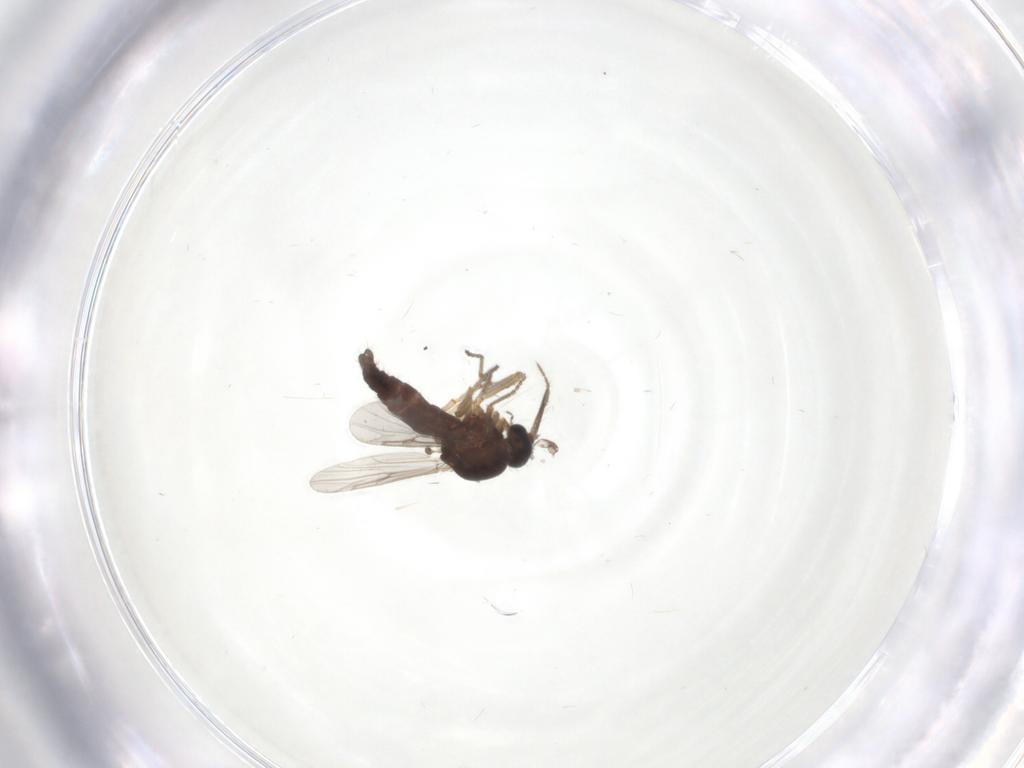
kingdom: Animalia
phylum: Arthropoda
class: Insecta
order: Diptera
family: Ceratopogonidae
